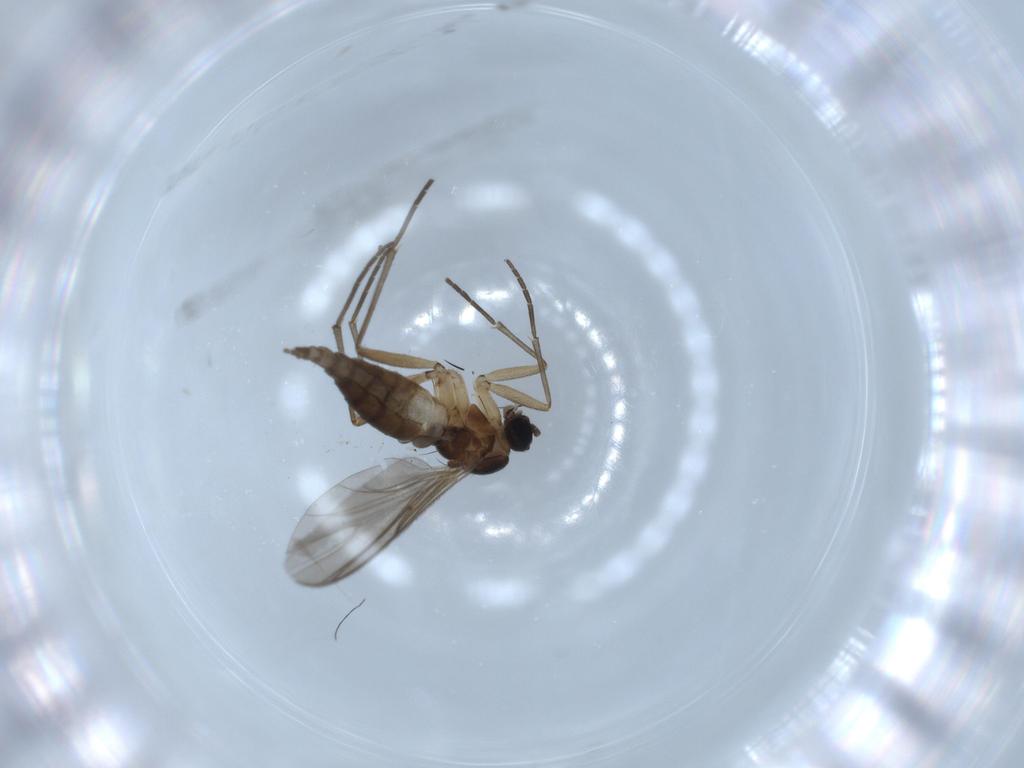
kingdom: Animalia
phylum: Arthropoda
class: Insecta
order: Diptera
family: Sciaridae
